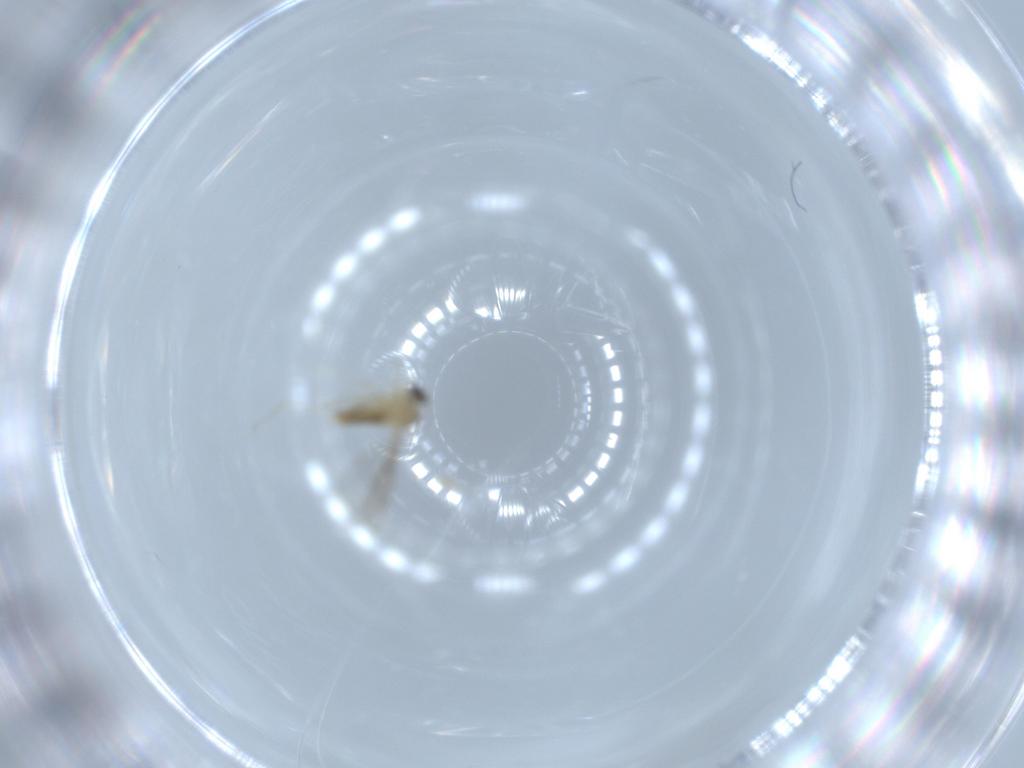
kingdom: Animalia
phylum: Arthropoda
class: Insecta
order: Diptera
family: Cecidomyiidae
